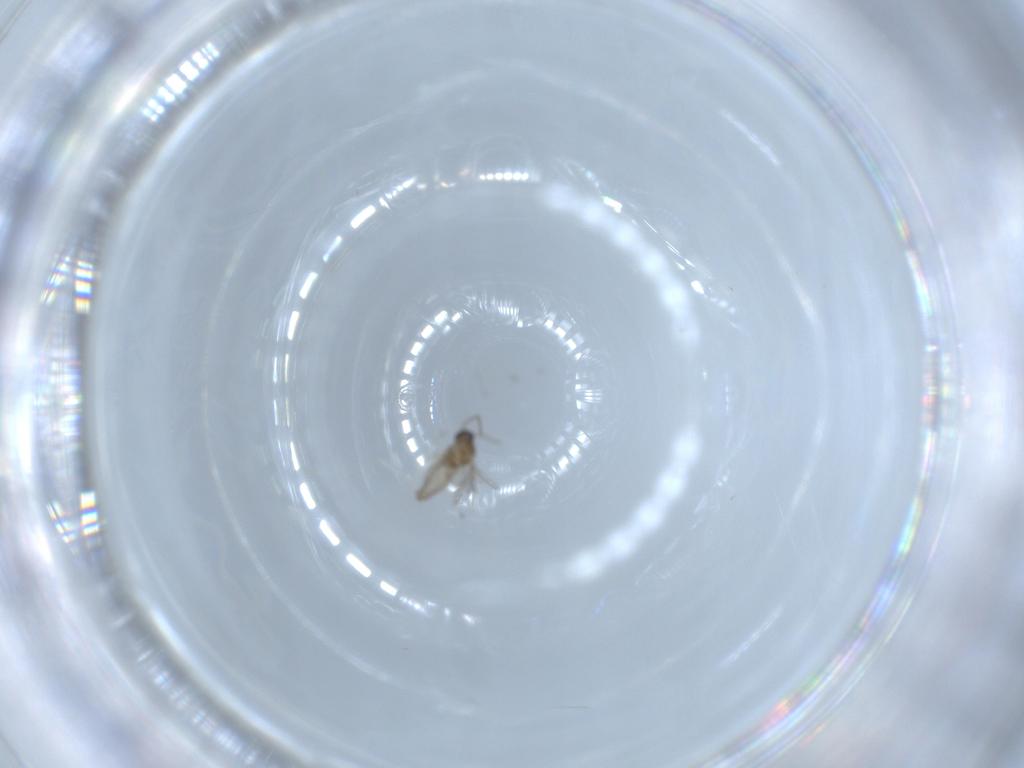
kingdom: Animalia
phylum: Arthropoda
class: Insecta
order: Diptera
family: Cecidomyiidae
